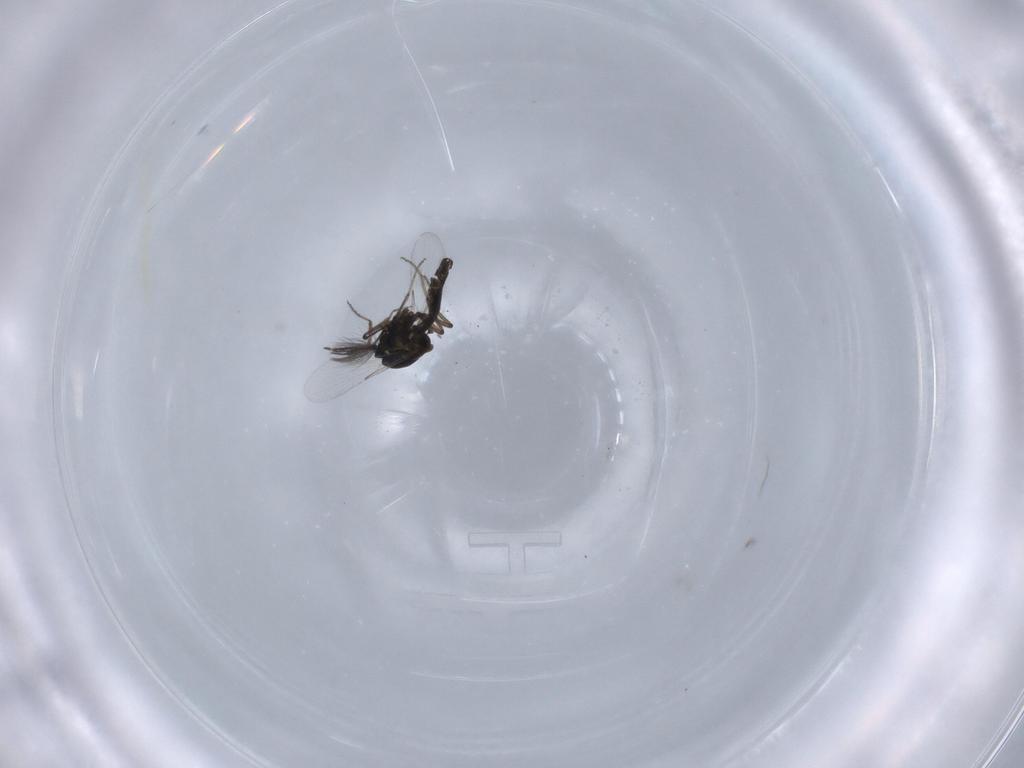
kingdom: Animalia
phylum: Arthropoda
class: Insecta
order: Diptera
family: Ceratopogonidae
